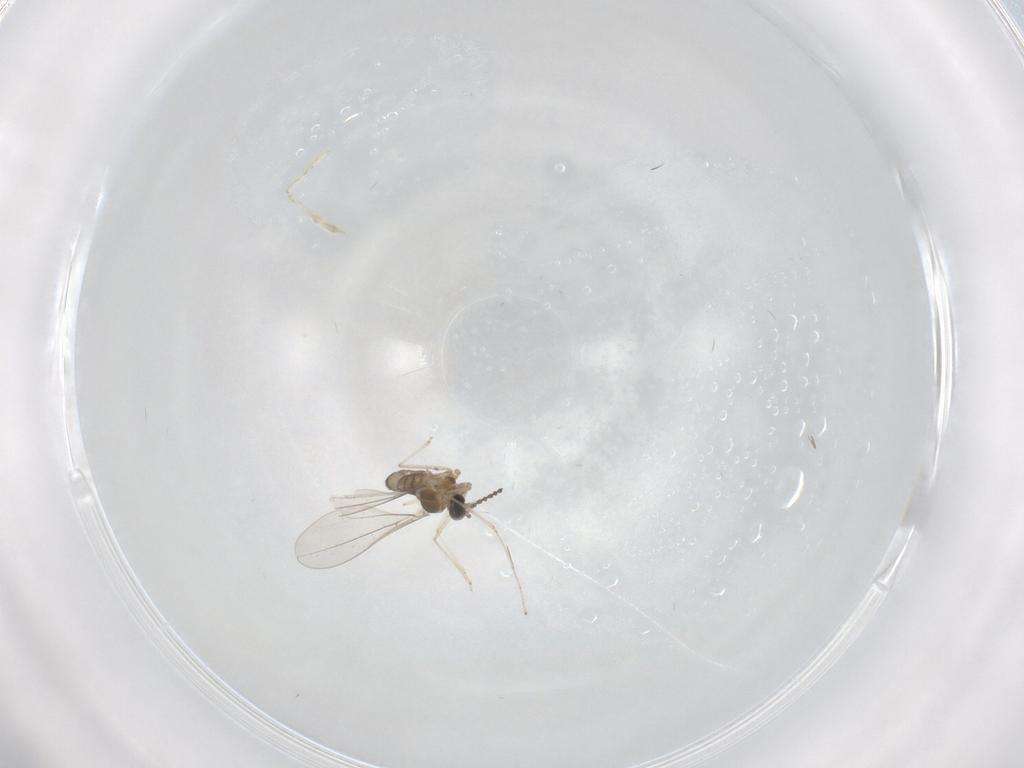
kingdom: Animalia
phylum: Arthropoda
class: Insecta
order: Diptera
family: Cecidomyiidae
